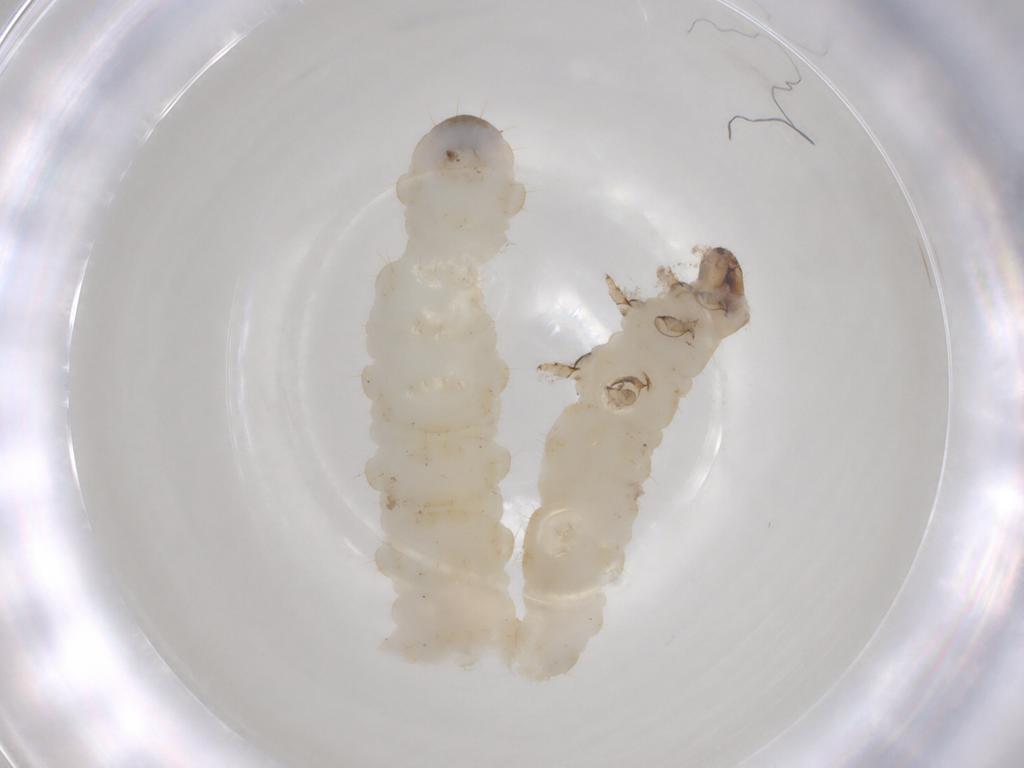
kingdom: Animalia
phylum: Arthropoda
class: Insecta
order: Coleoptera
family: Chrysomelidae
